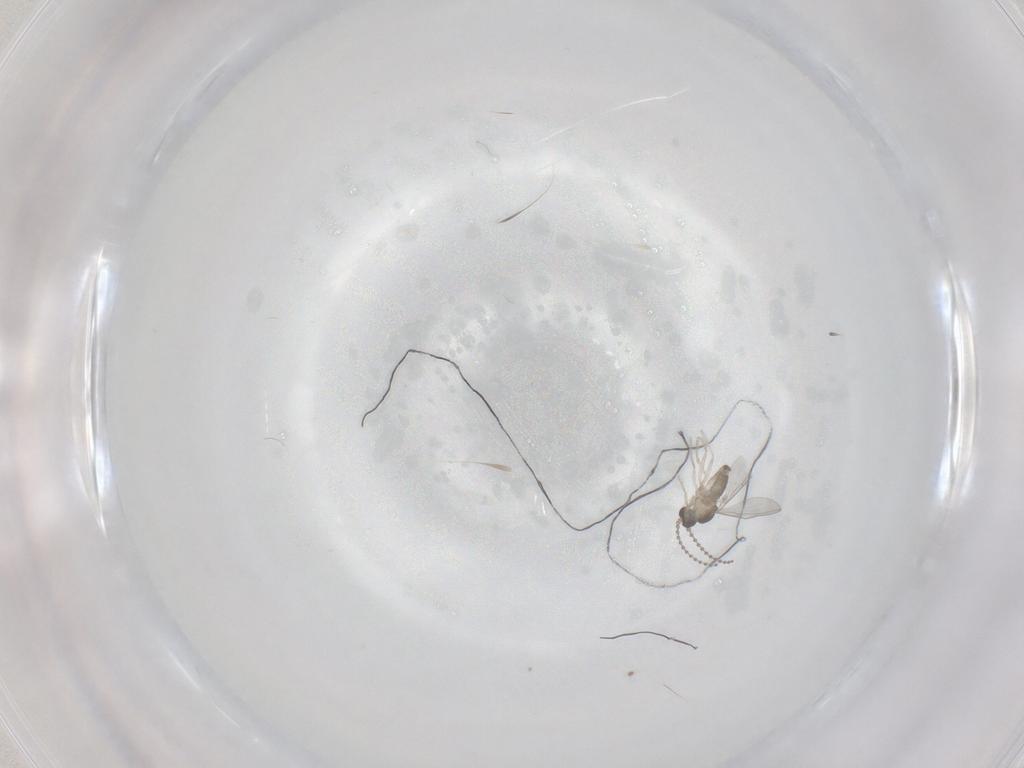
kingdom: Animalia
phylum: Arthropoda
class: Insecta
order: Diptera
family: Cecidomyiidae
